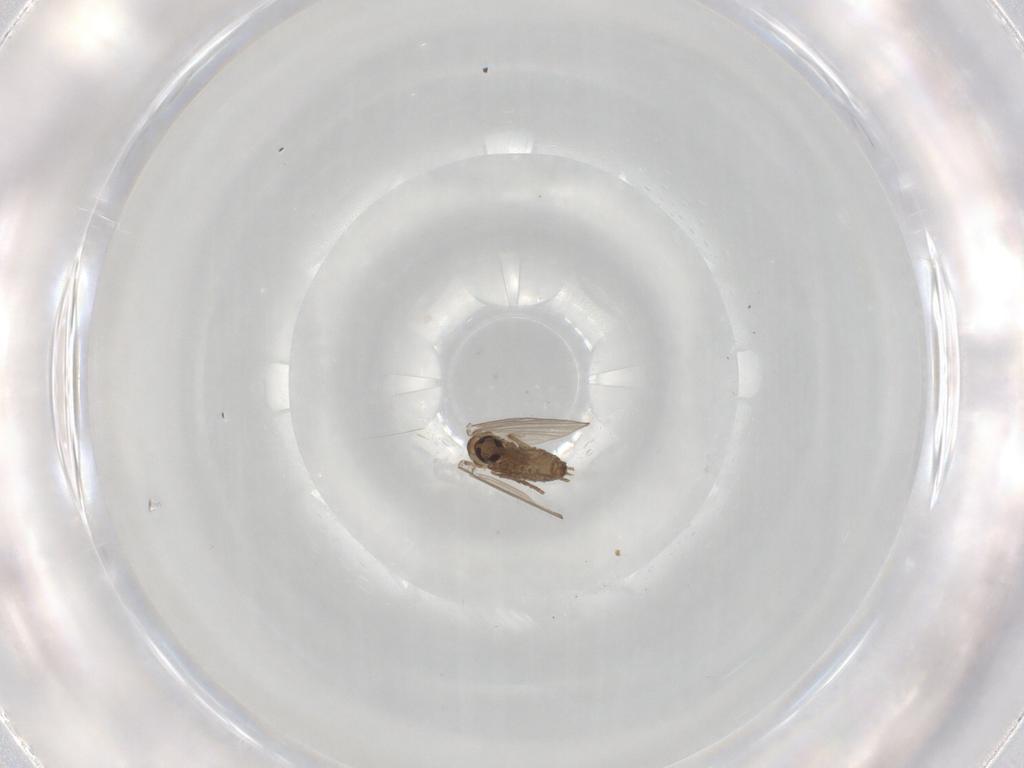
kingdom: Animalia
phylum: Arthropoda
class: Insecta
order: Diptera
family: Psychodidae
